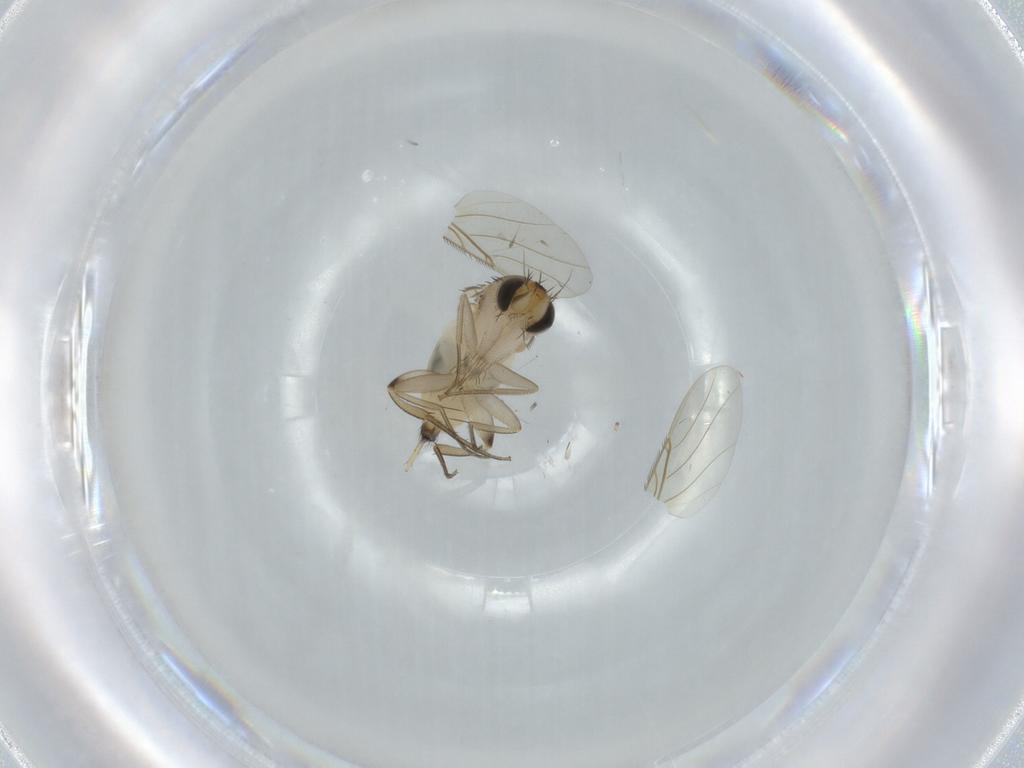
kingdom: Animalia
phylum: Arthropoda
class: Insecta
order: Diptera
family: Phoridae
